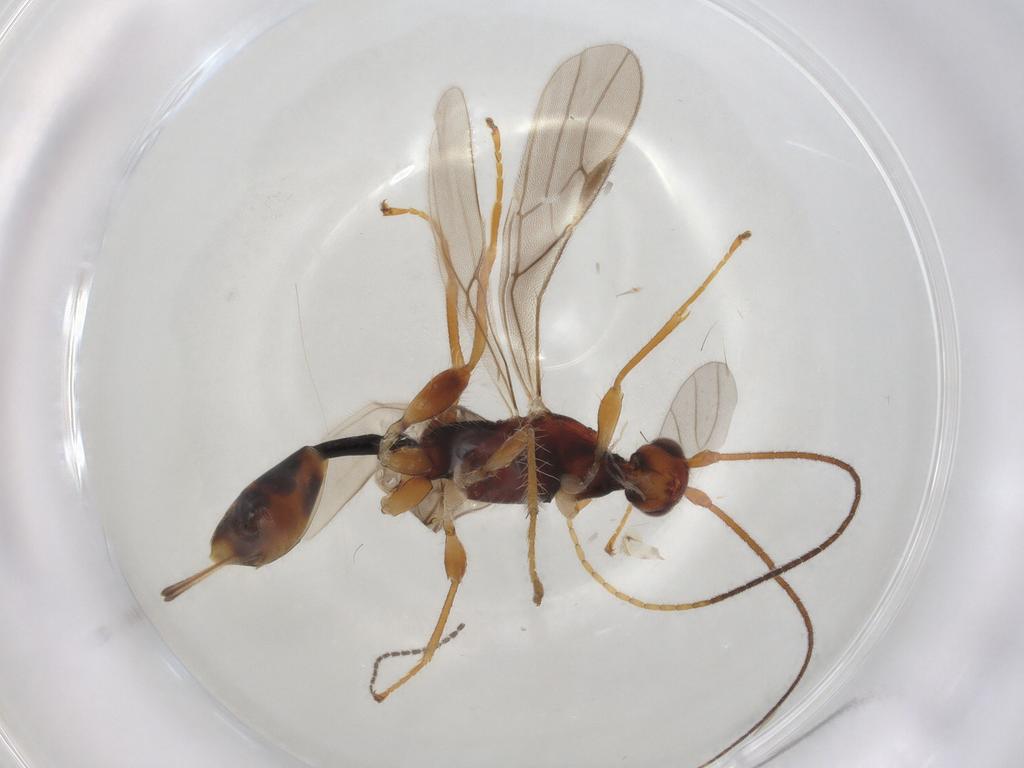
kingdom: Animalia
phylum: Arthropoda
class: Insecta
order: Hymenoptera
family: Braconidae
